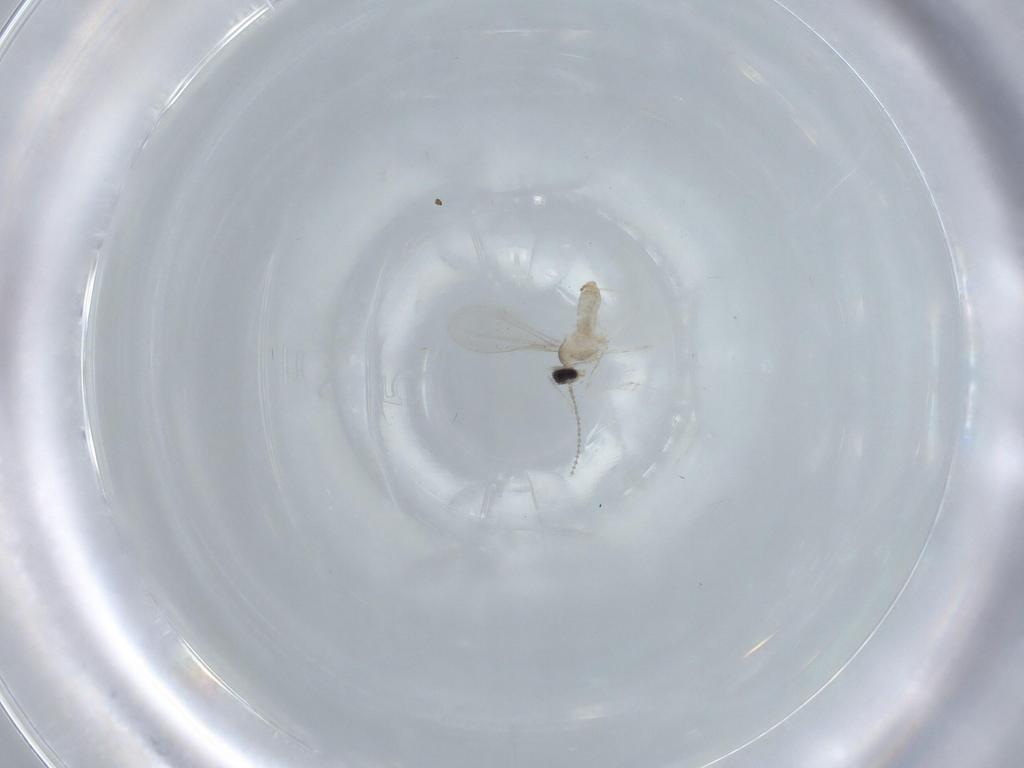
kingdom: Animalia
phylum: Arthropoda
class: Insecta
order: Diptera
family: Cecidomyiidae
